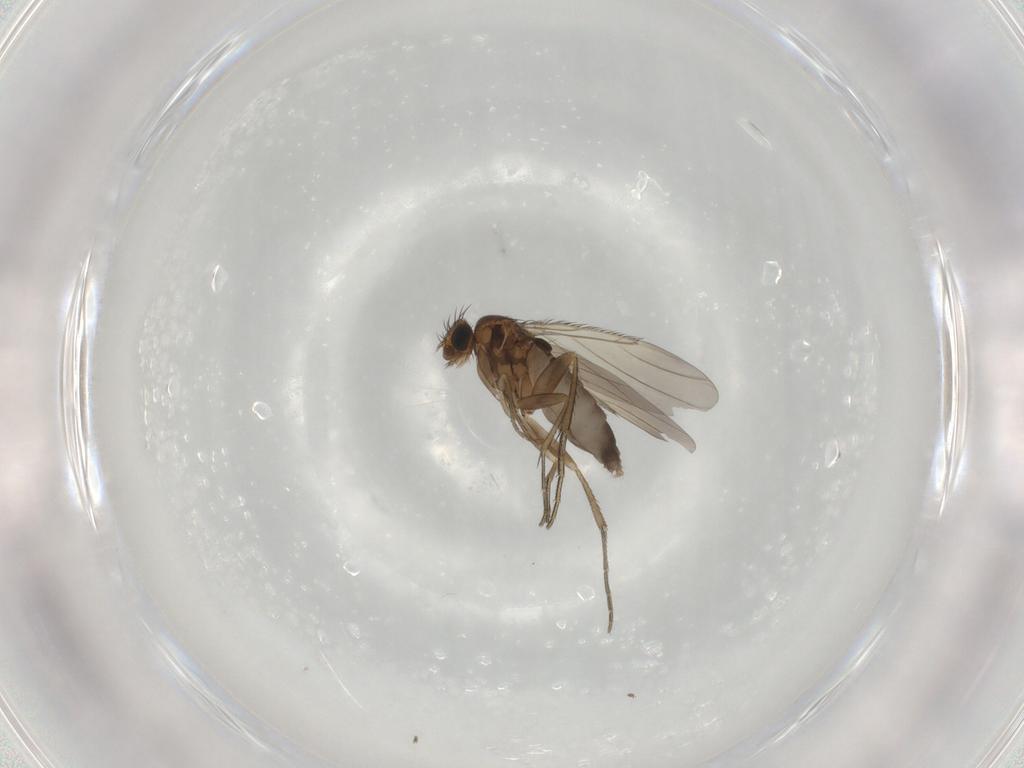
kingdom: Animalia
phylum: Arthropoda
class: Insecta
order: Diptera
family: Phoridae
